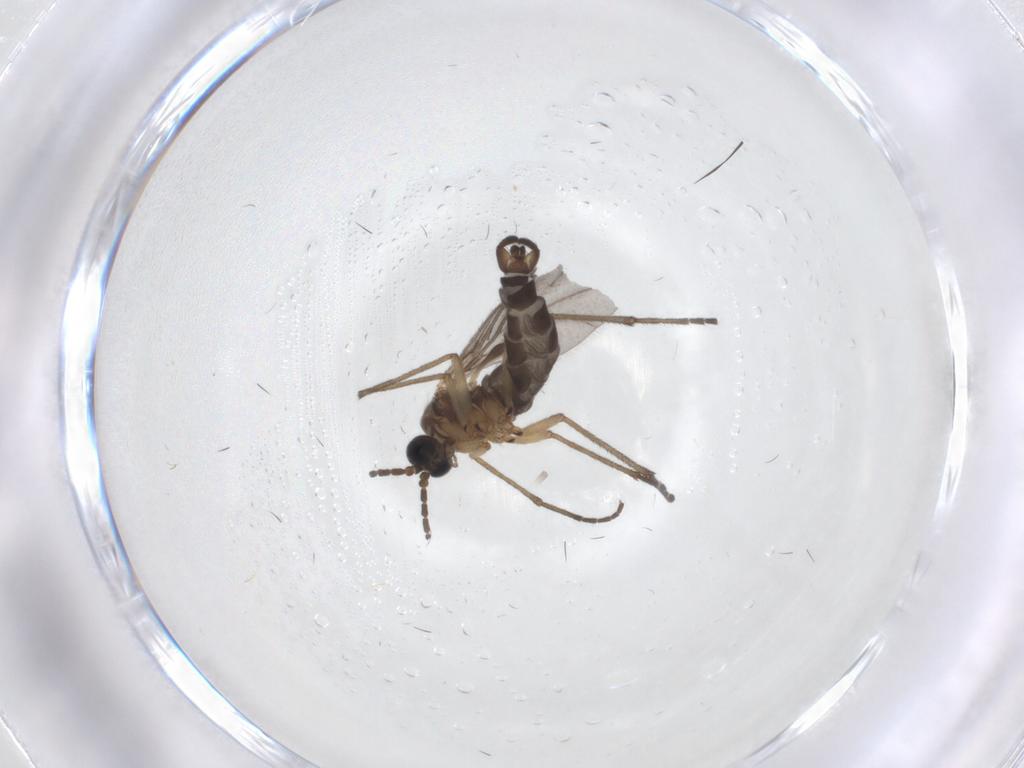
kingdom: Animalia
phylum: Arthropoda
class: Insecta
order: Diptera
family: Sciaridae
